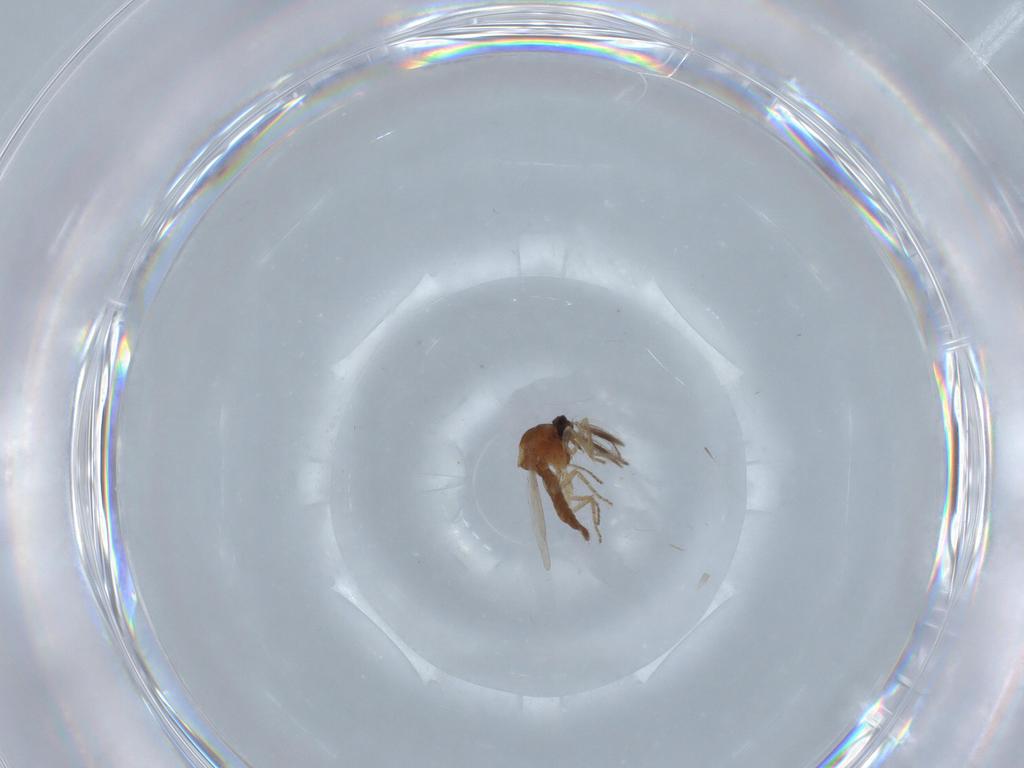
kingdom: Animalia
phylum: Arthropoda
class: Insecta
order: Diptera
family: Ceratopogonidae
